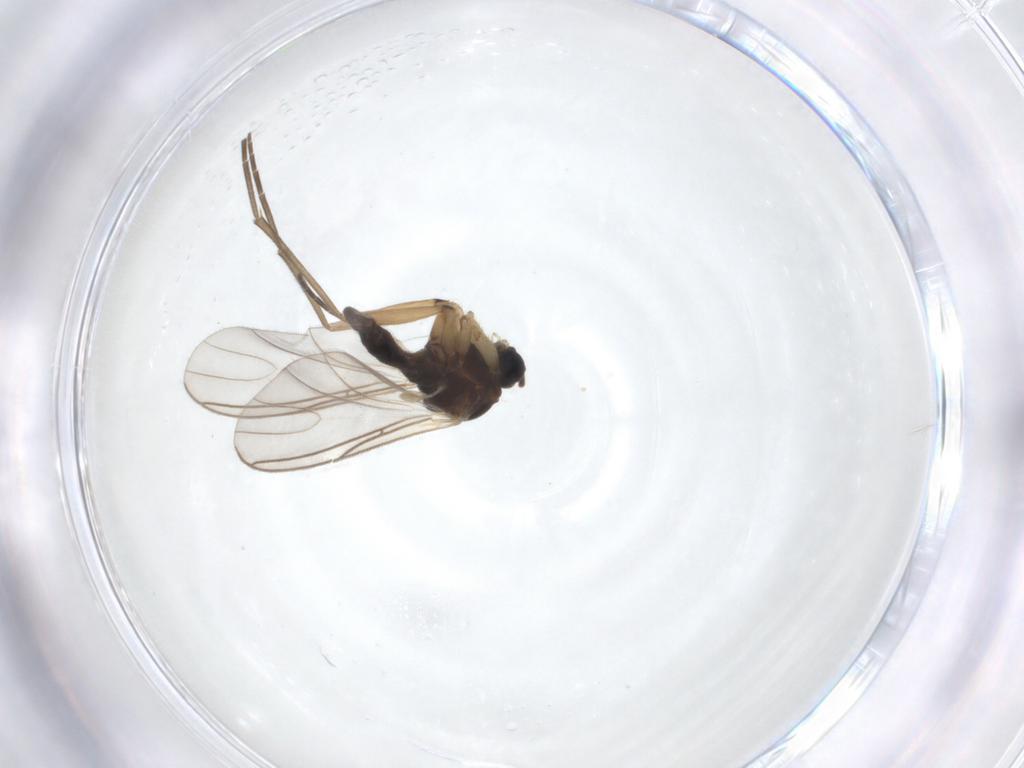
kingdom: Animalia
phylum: Arthropoda
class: Insecta
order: Diptera
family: Sciaridae
